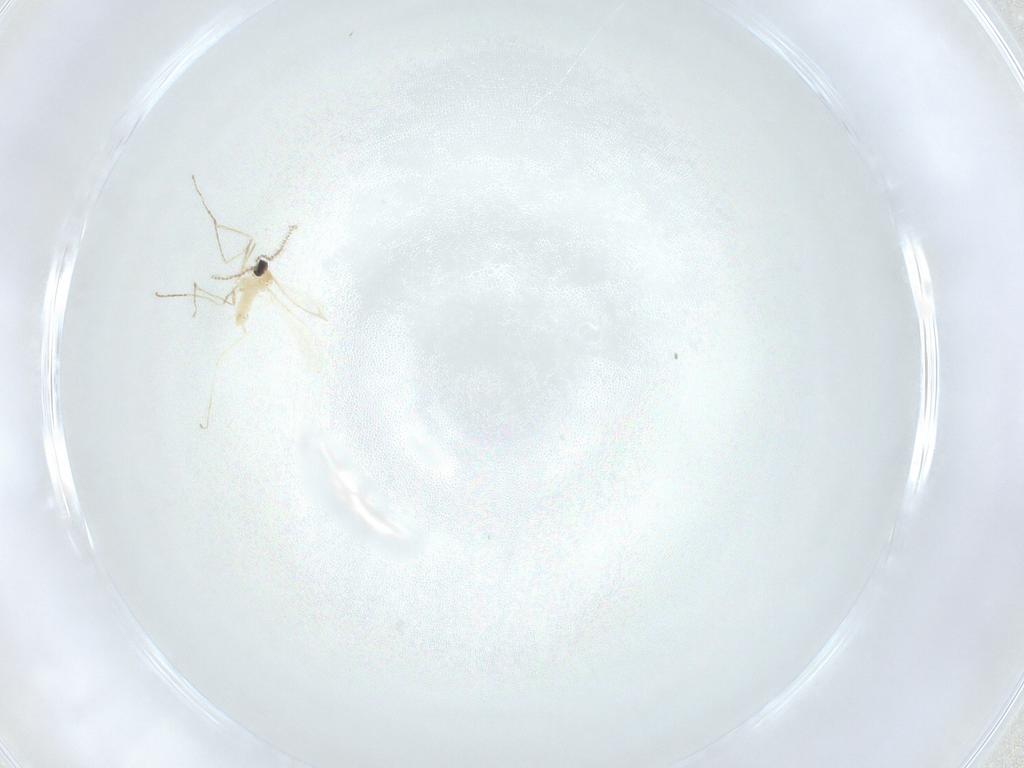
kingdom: Animalia
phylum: Arthropoda
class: Insecta
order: Diptera
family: Cecidomyiidae
